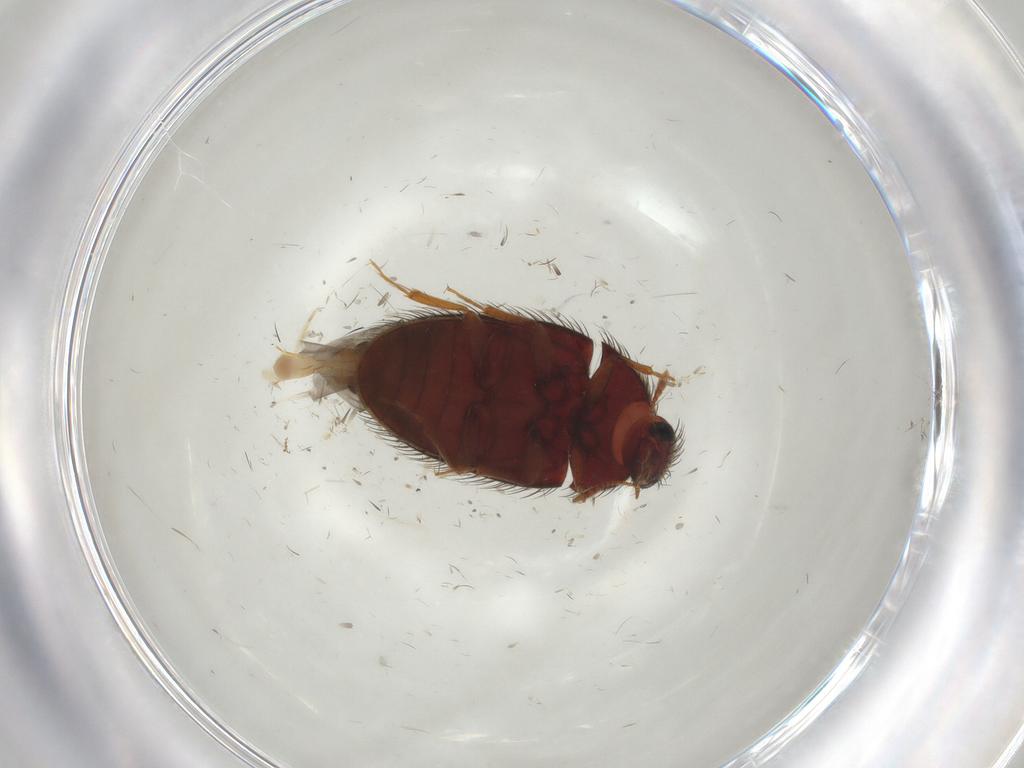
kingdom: Animalia
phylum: Arthropoda
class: Insecta
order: Coleoptera
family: Biphyllidae
